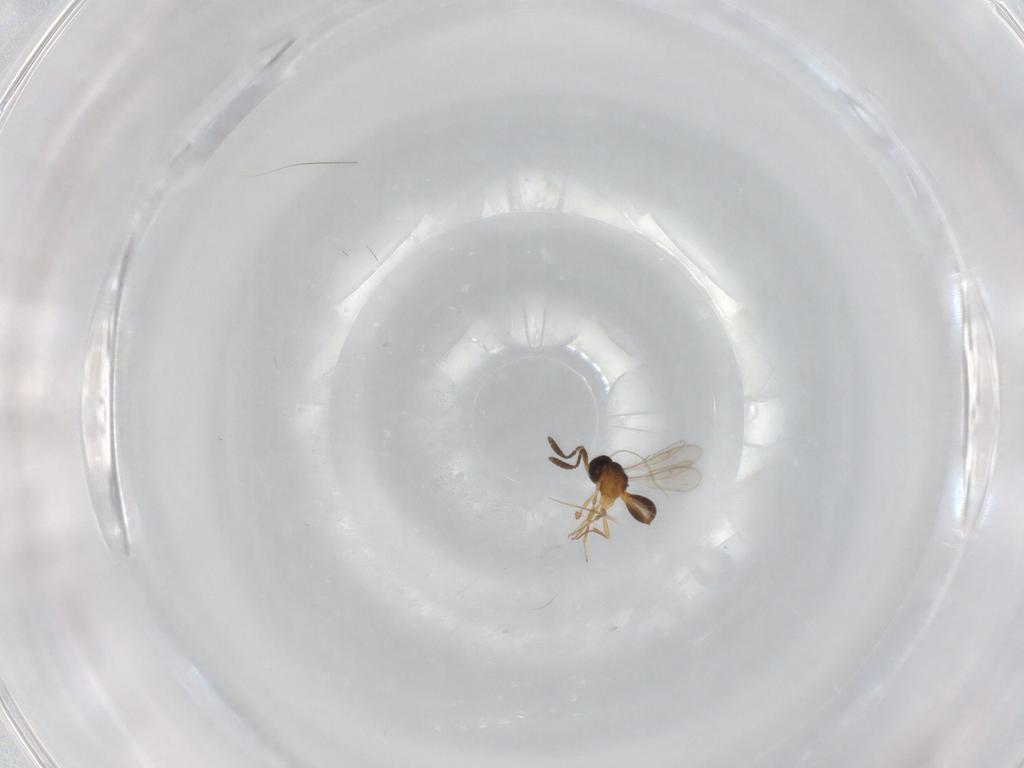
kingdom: Animalia
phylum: Arthropoda
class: Insecta
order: Hymenoptera
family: Scelionidae
